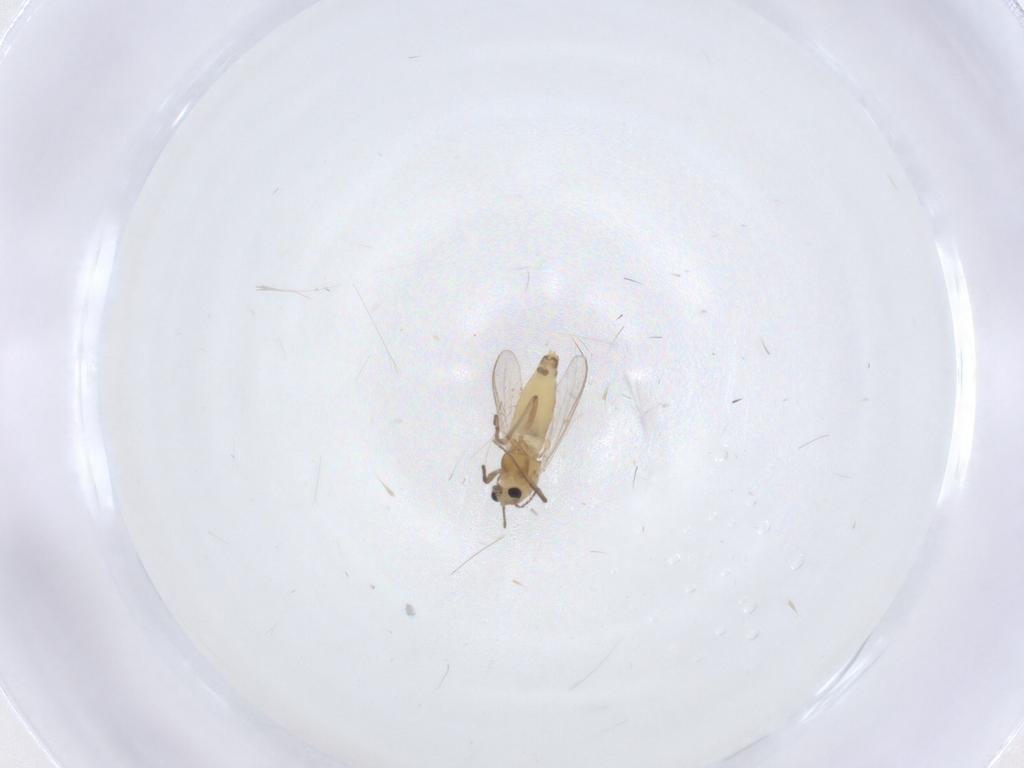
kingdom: Animalia
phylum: Arthropoda
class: Insecta
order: Diptera
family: Chironomidae
